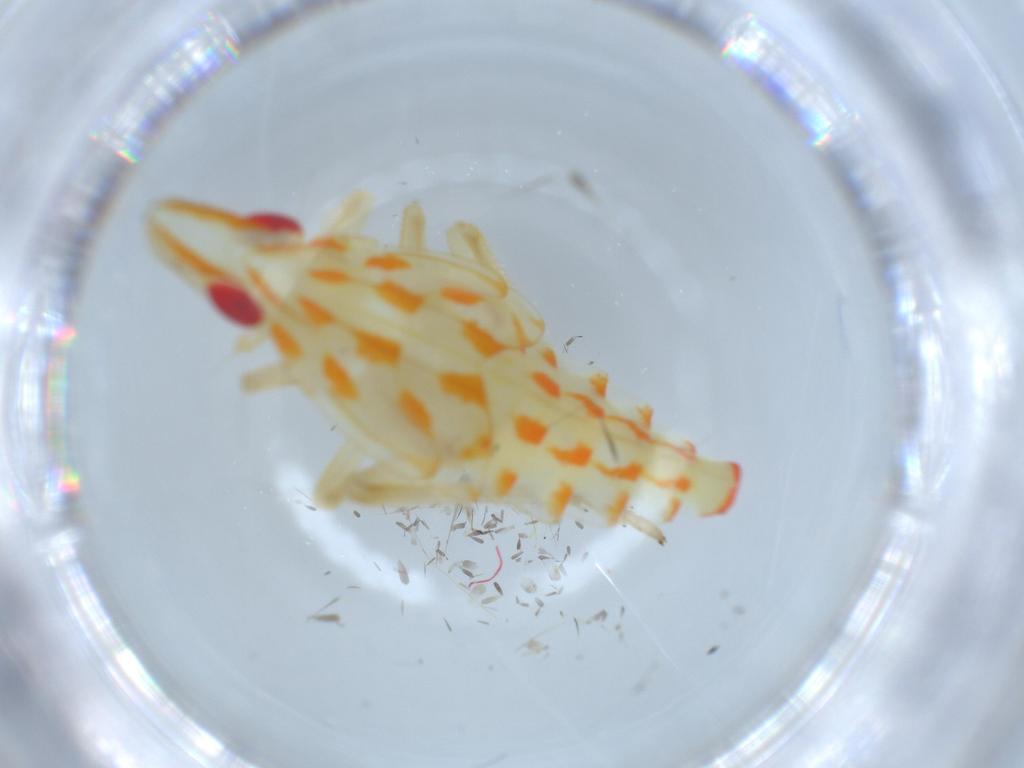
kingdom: Animalia
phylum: Arthropoda
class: Insecta
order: Hemiptera
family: Tropiduchidae
